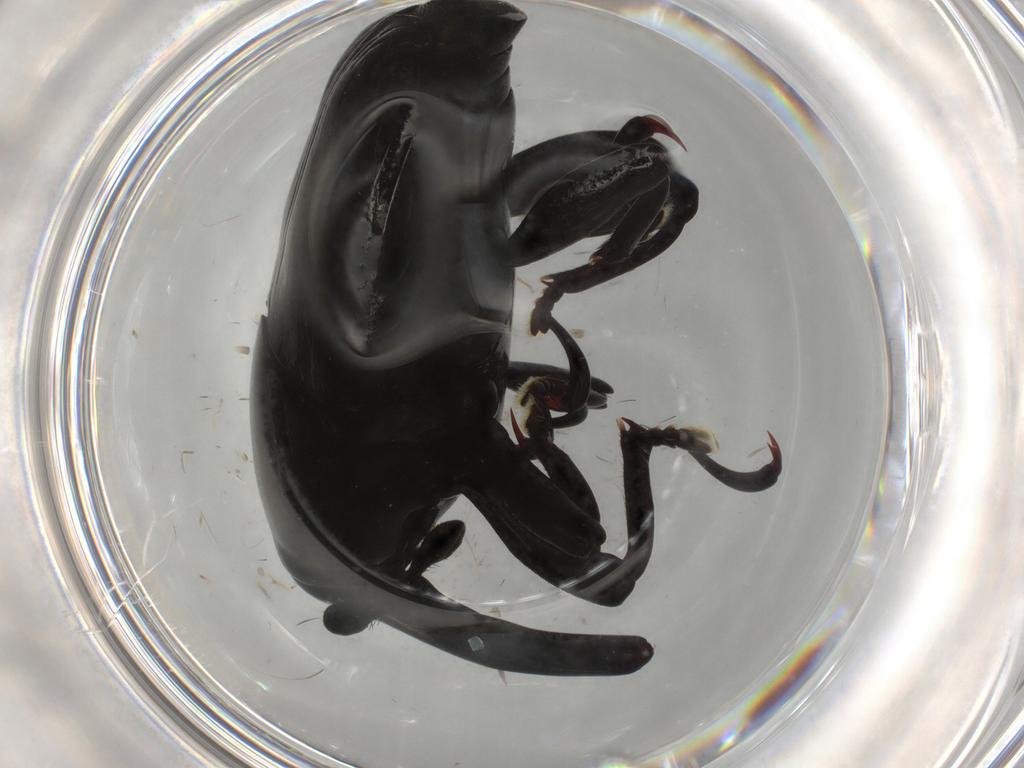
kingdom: Animalia
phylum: Arthropoda
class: Insecta
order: Coleoptera
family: Curculionidae
